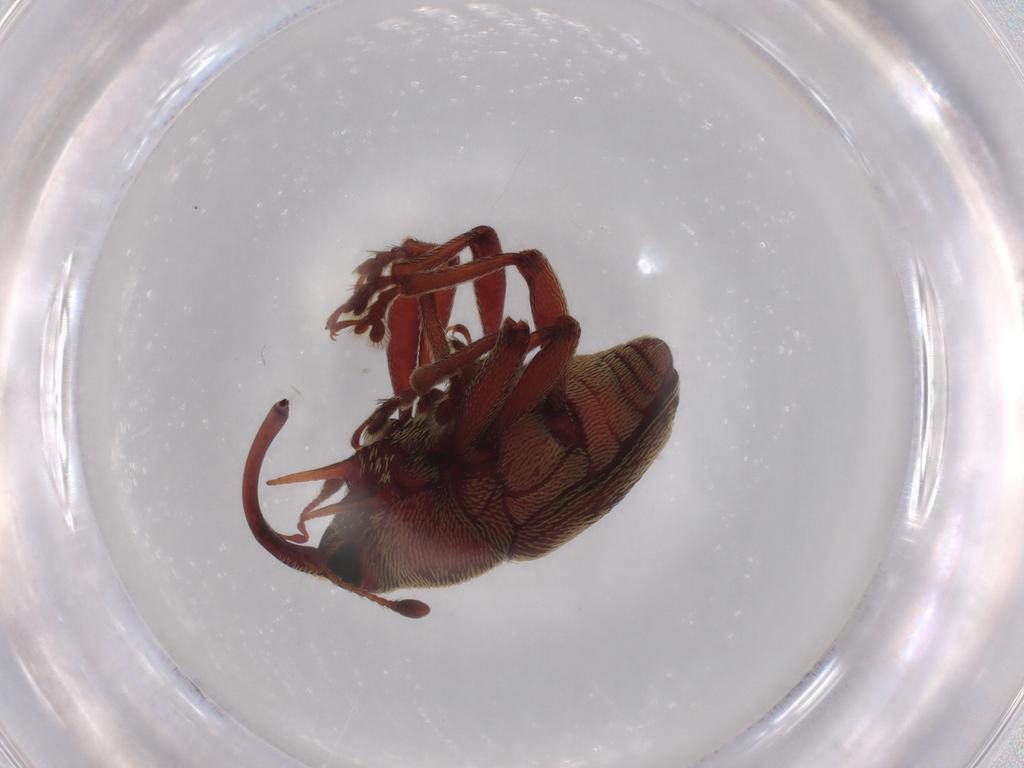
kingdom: Animalia
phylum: Arthropoda
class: Insecta
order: Coleoptera
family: Curculionidae
